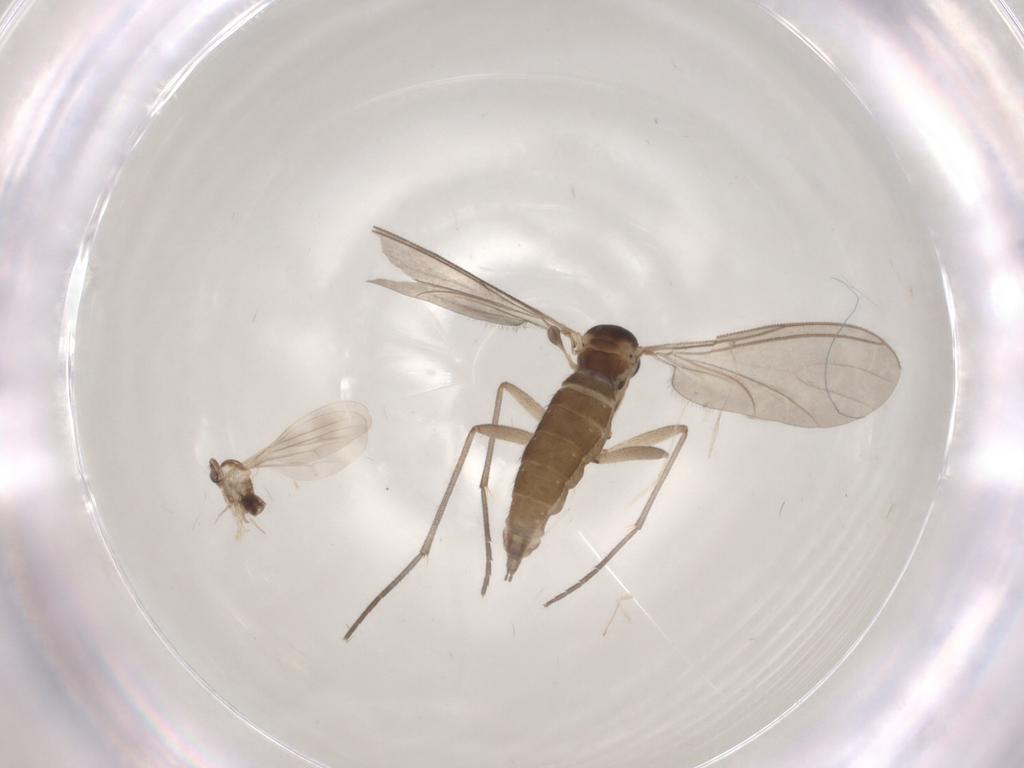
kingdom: Animalia
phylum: Arthropoda
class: Insecta
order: Diptera
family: Sciaridae
